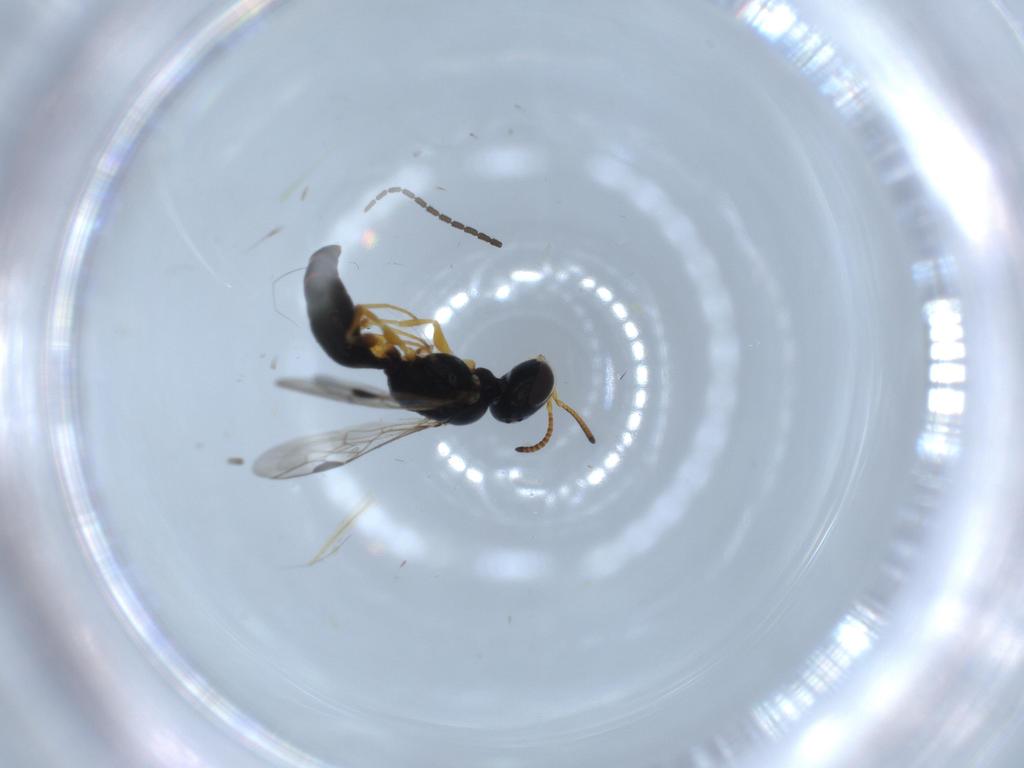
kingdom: Animalia
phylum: Arthropoda
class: Insecta
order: Hymenoptera
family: Pemphredonidae
